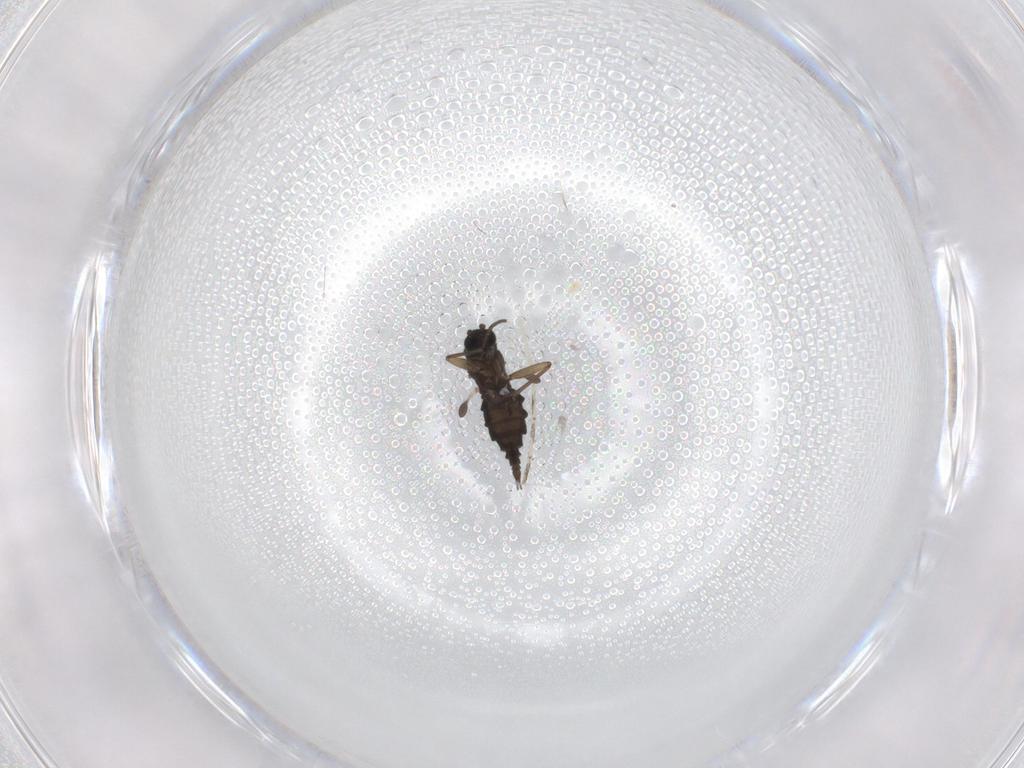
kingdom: Animalia
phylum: Arthropoda
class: Insecta
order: Diptera
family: Sciaridae
